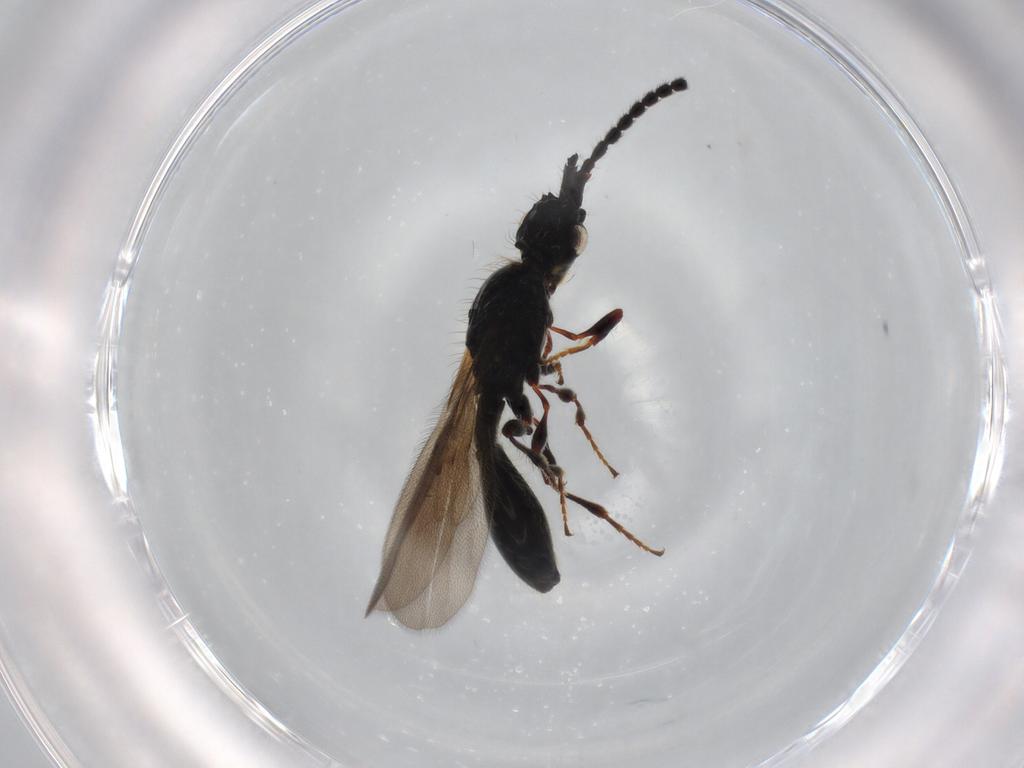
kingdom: Animalia
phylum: Arthropoda
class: Insecta
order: Hymenoptera
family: Diapriidae
